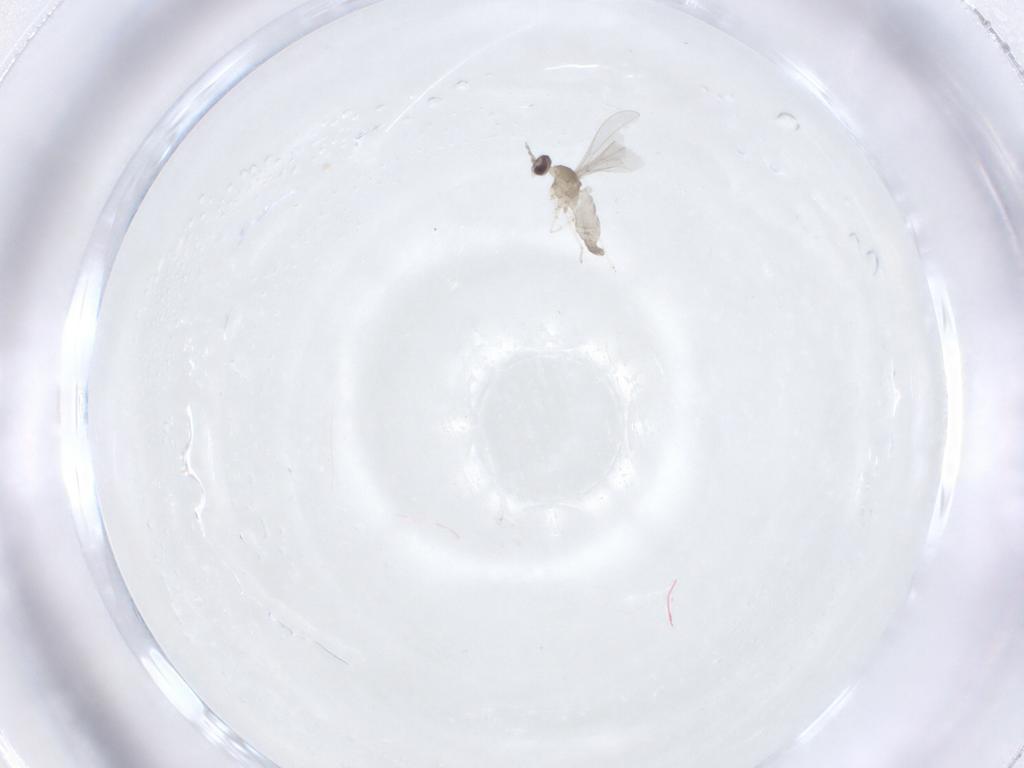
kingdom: Animalia
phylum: Arthropoda
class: Insecta
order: Diptera
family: Cecidomyiidae
